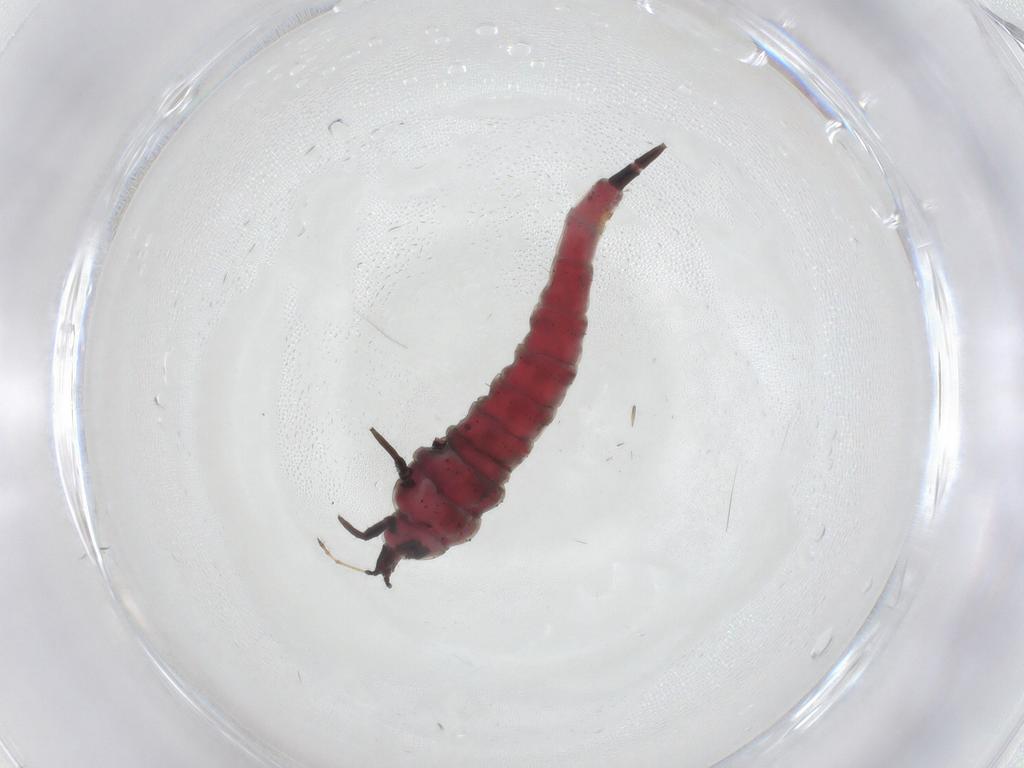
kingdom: Animalia
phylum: Arthropoda
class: Insecta
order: Thysanoptera
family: Phlaeothripidae
